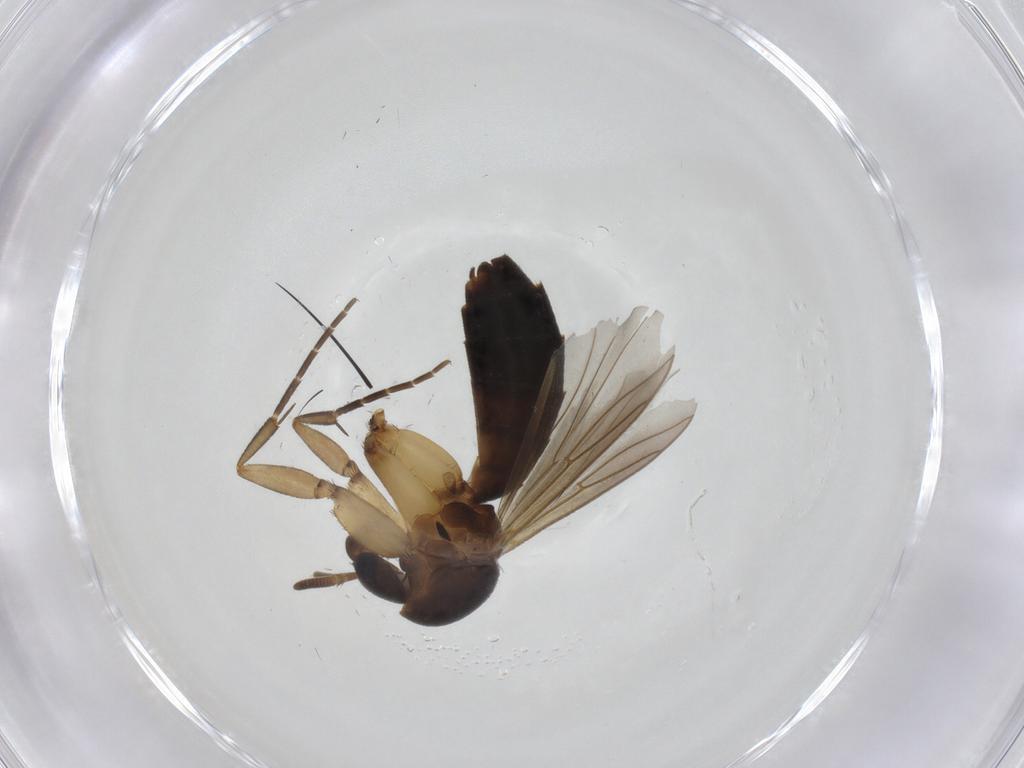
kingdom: Animalia
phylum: Arthropoda
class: Insecta
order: Diptera
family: Mycetophilidae
